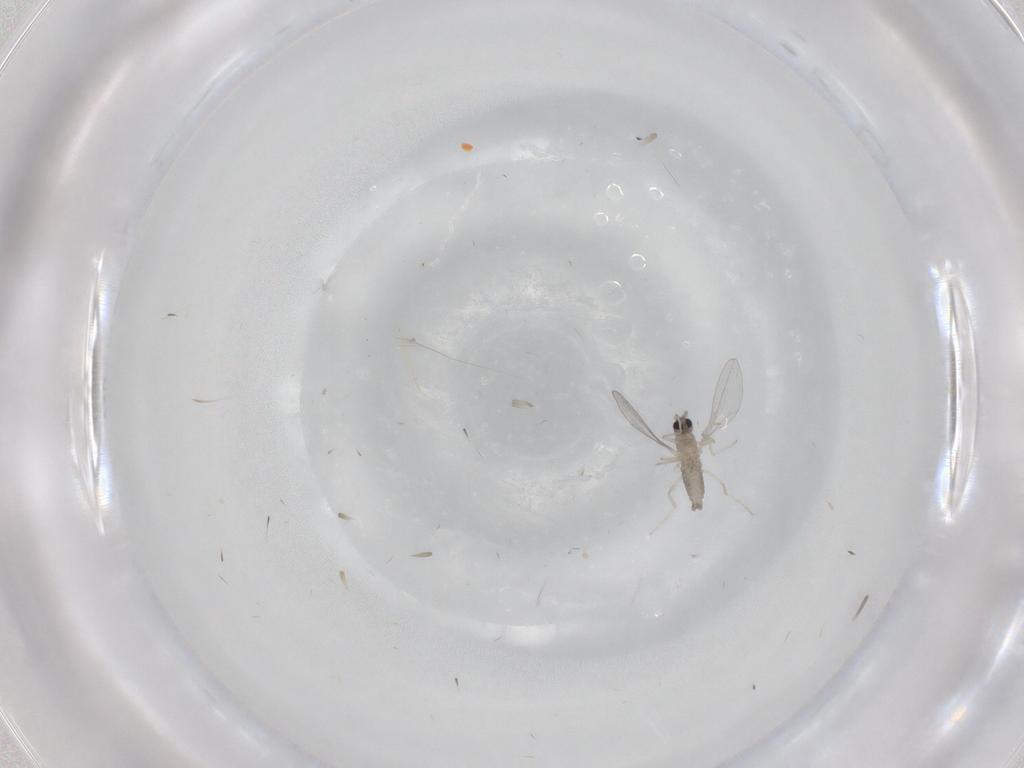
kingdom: Animalia
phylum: Arthropoda
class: Insecta
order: Diptera
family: Cecidomyiidae
